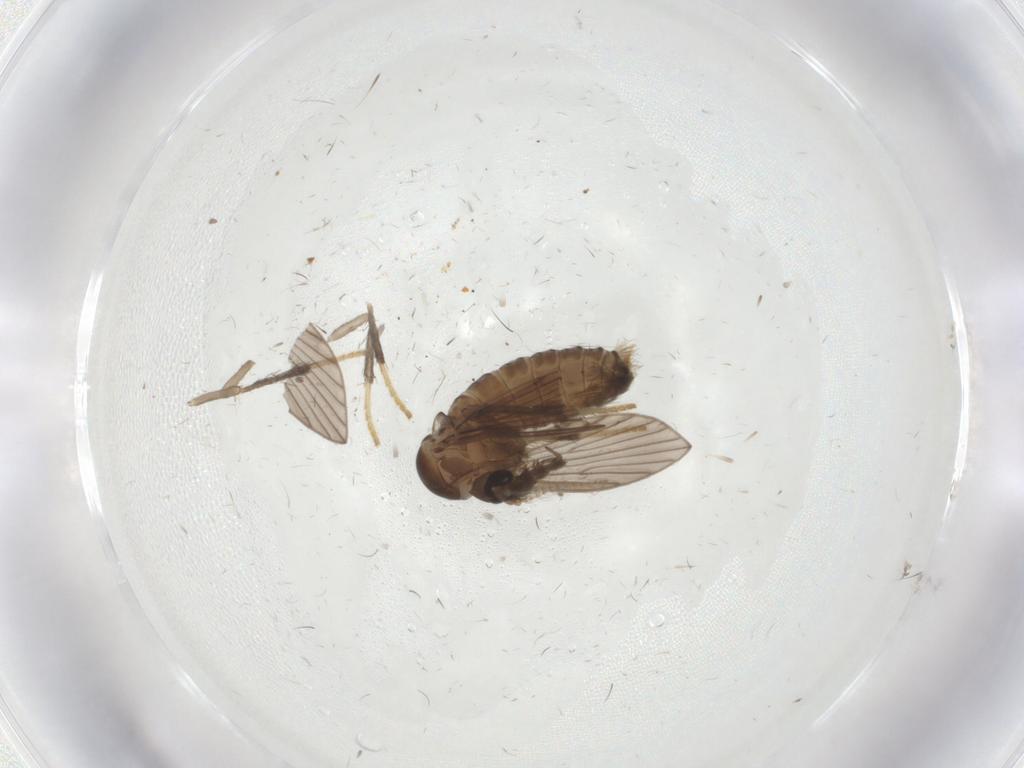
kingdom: Animalia
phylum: Arthropoda
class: Insecta
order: Diptera
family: Psychodidae
